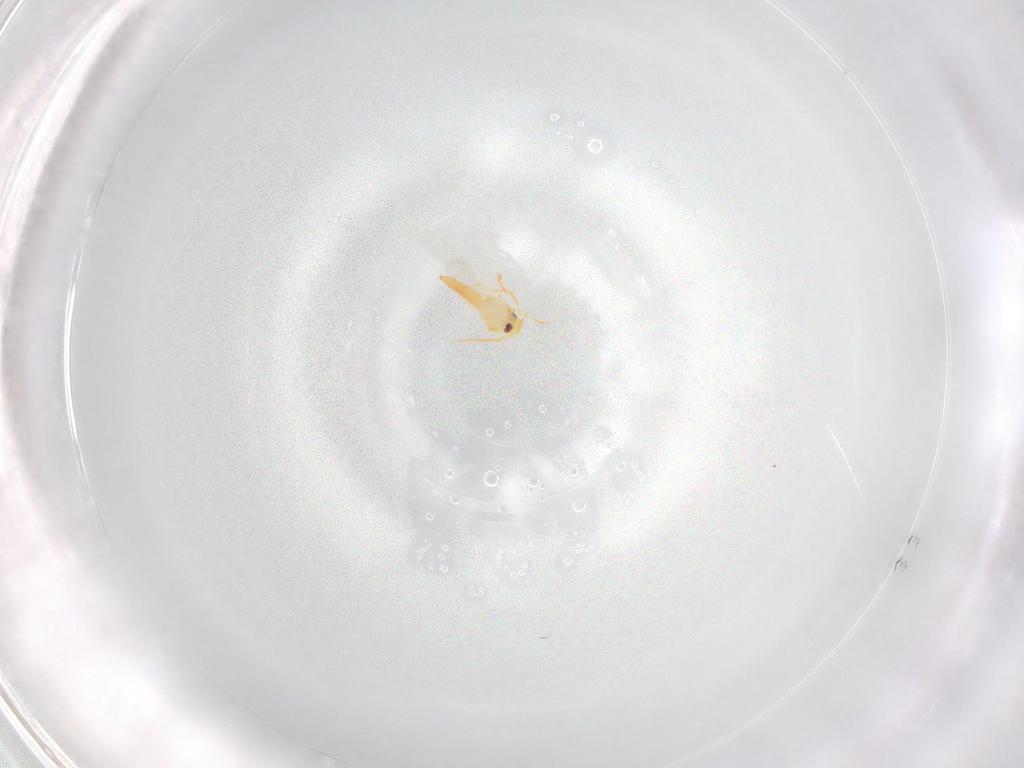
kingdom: Animalia
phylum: Arthropoda
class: Insecta
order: Hemiptera
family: Aleyrodidae
